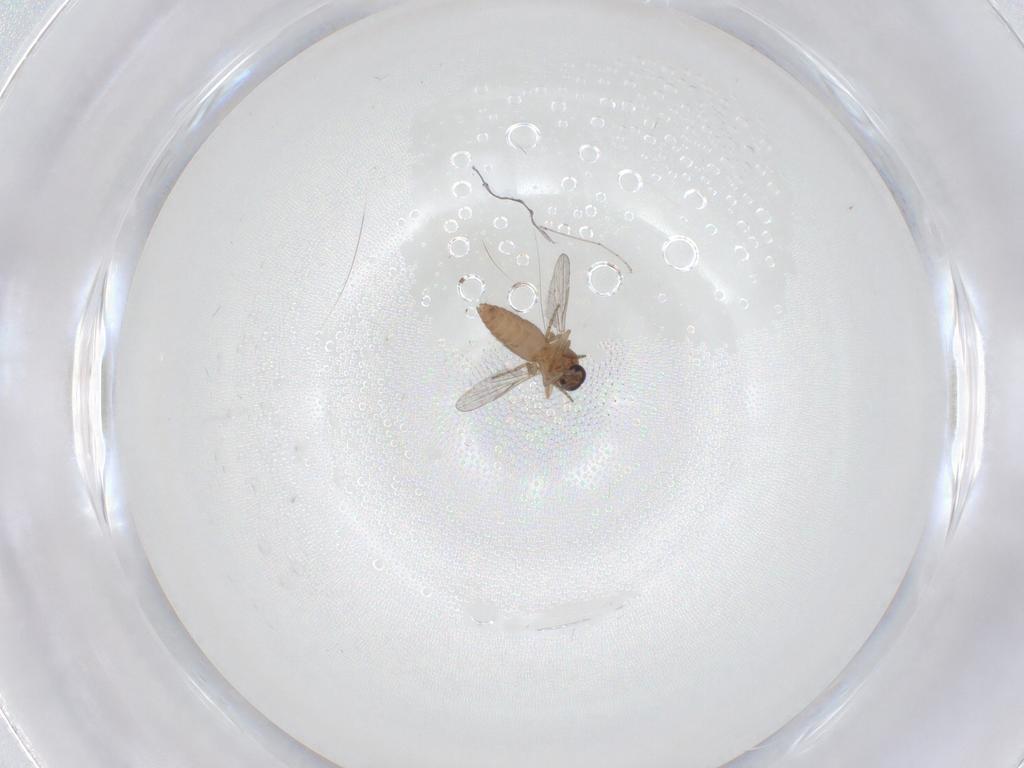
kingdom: Animalia
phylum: Arthropoda
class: Insecta
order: Diptera
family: Ceratopogonidae
